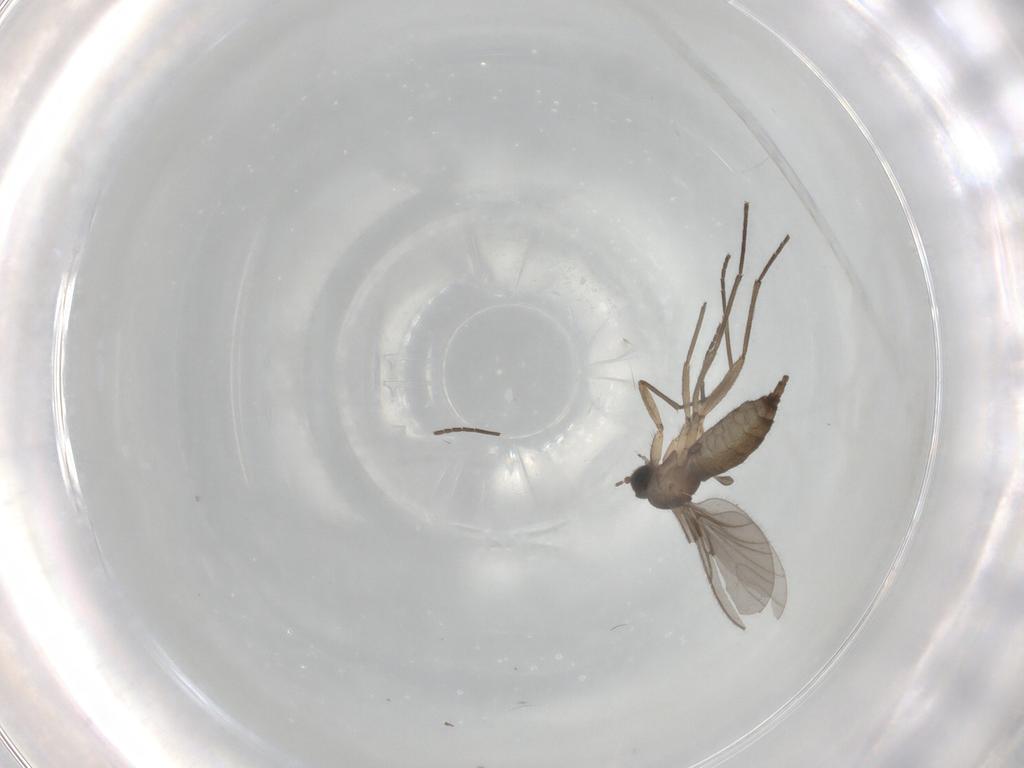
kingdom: Animalia
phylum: Arthropoda
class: Insecta
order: Diptera
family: Sciaridae
